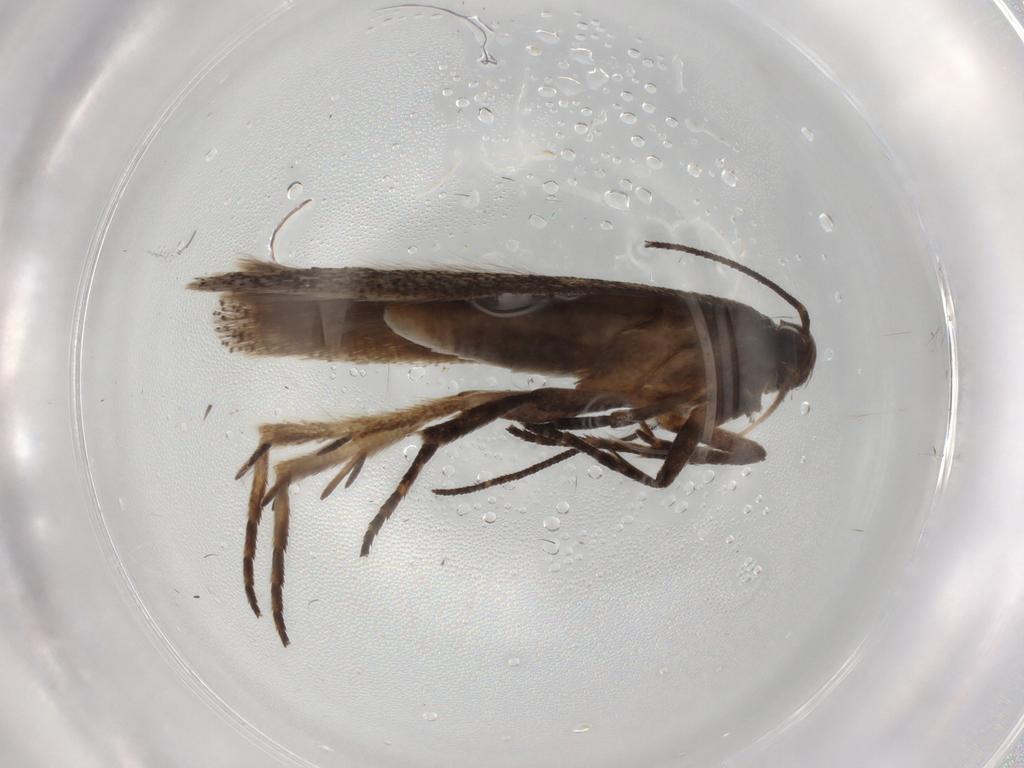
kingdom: Animalia
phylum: Arthropoda
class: Insecta
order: Lepidoptera
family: Gelechiidae
